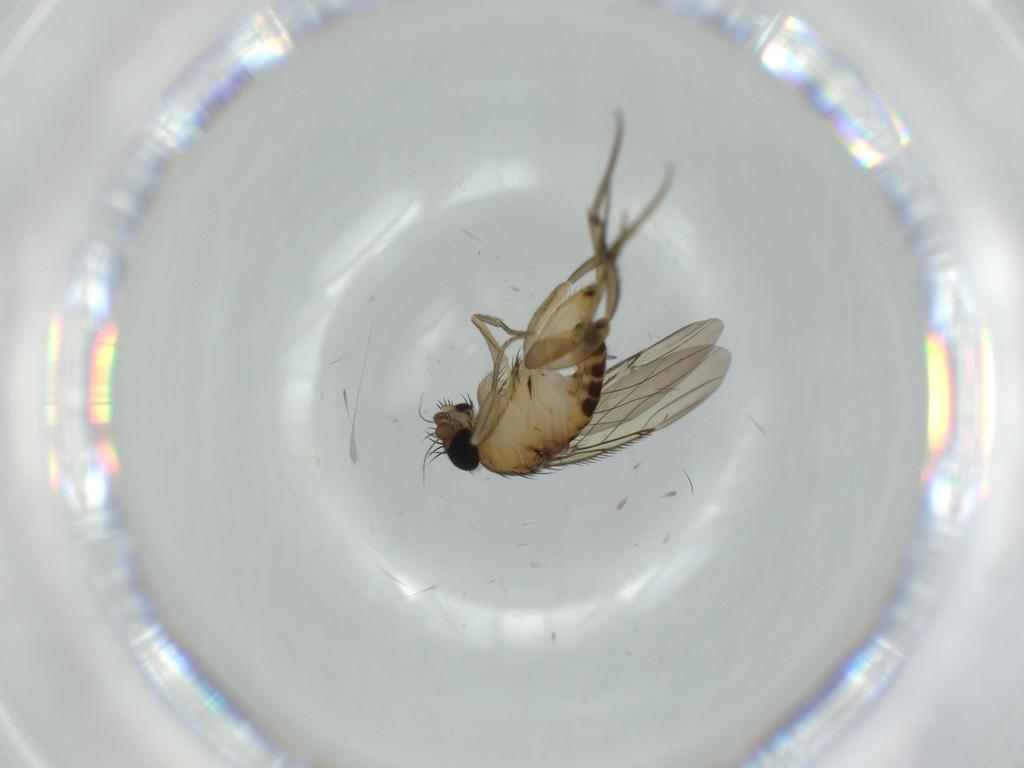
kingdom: Animalia
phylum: Arthropoda
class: Insecta
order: Diptera
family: Phoridae
